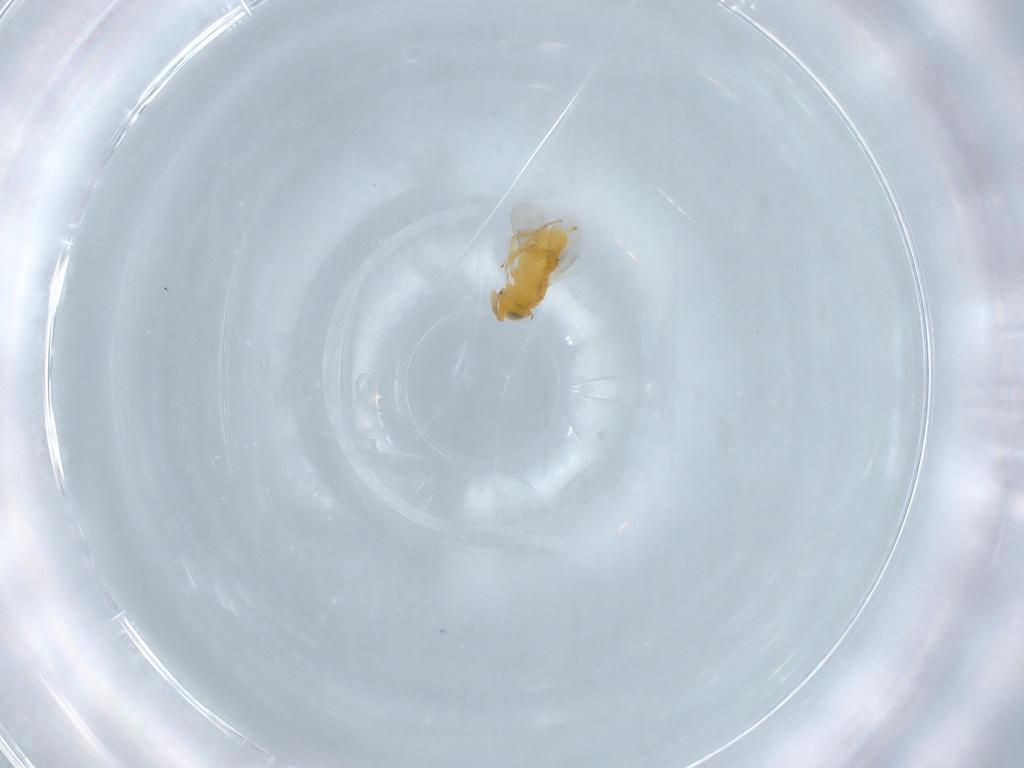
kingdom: Animalia
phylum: Arthropoda
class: Insecta
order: Hymenoptera
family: Encyrtidae
